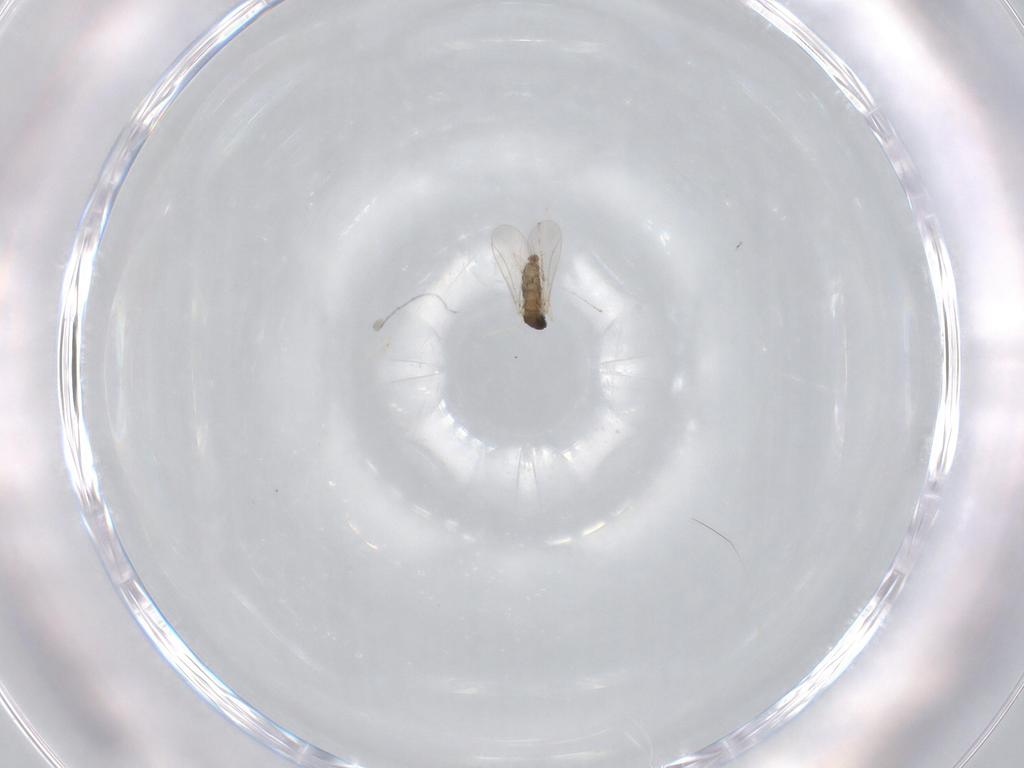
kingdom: Animalia
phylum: Arthropoda
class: Insecta
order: Diptera
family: Cecidomyiidae
